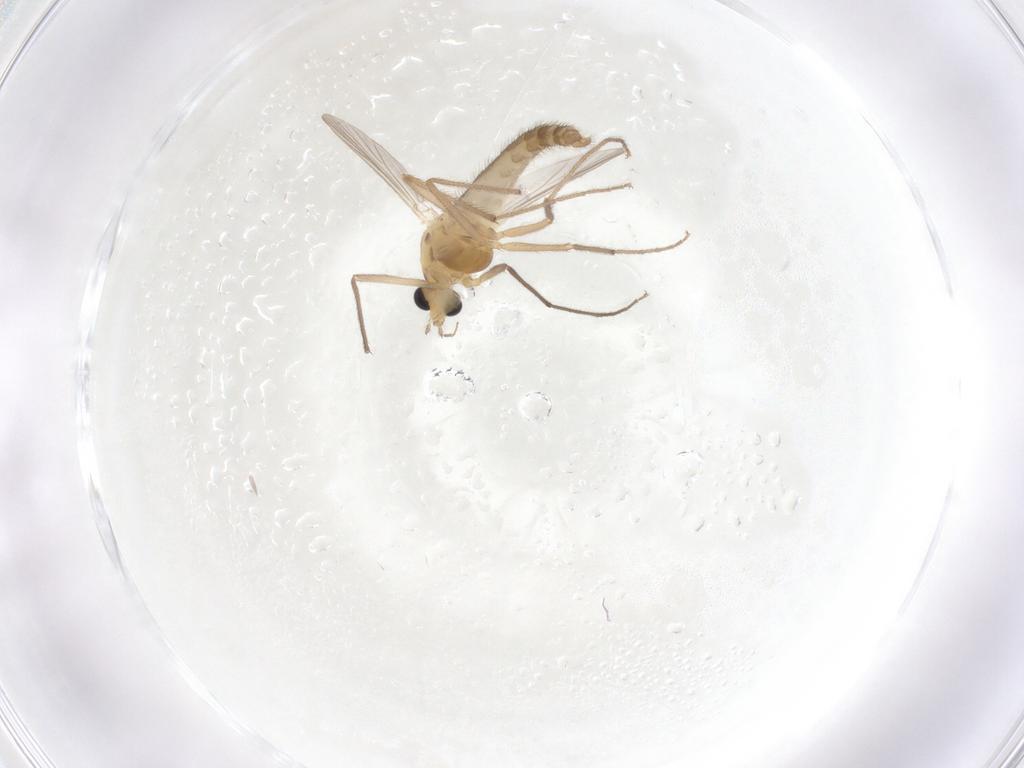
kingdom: Animalia
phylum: Arthropoda
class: Insecta
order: Diptera
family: Chironomidae
